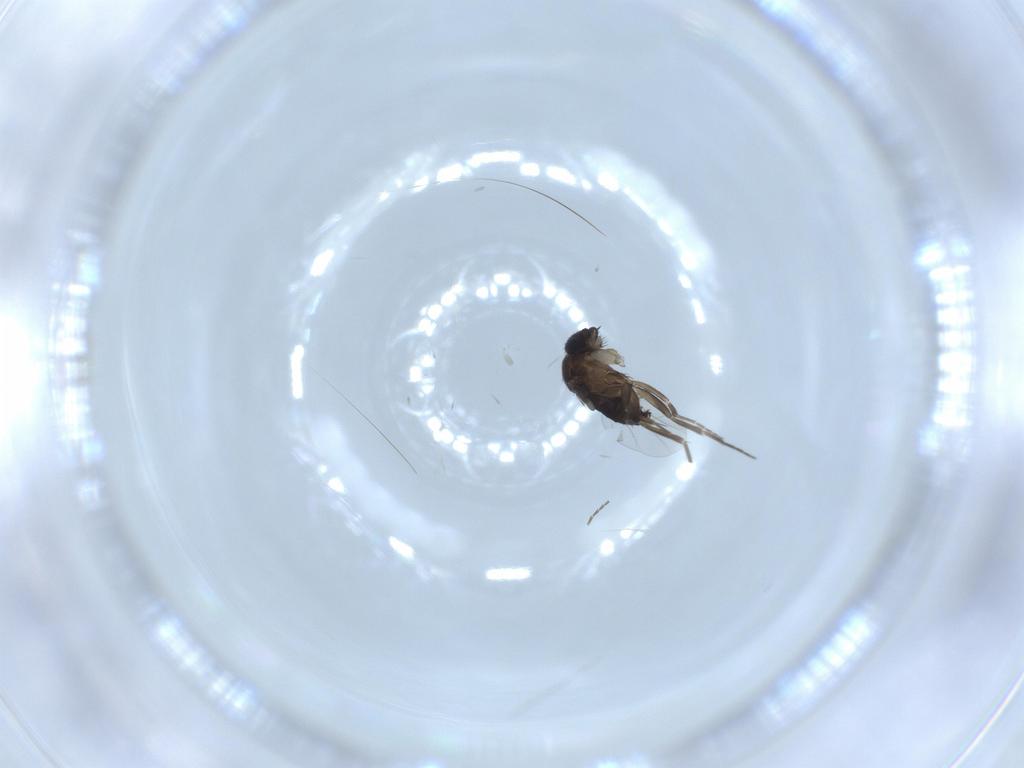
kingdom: Animalia
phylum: Arthropoda
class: Insecta
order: Diptera
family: Phoridae
